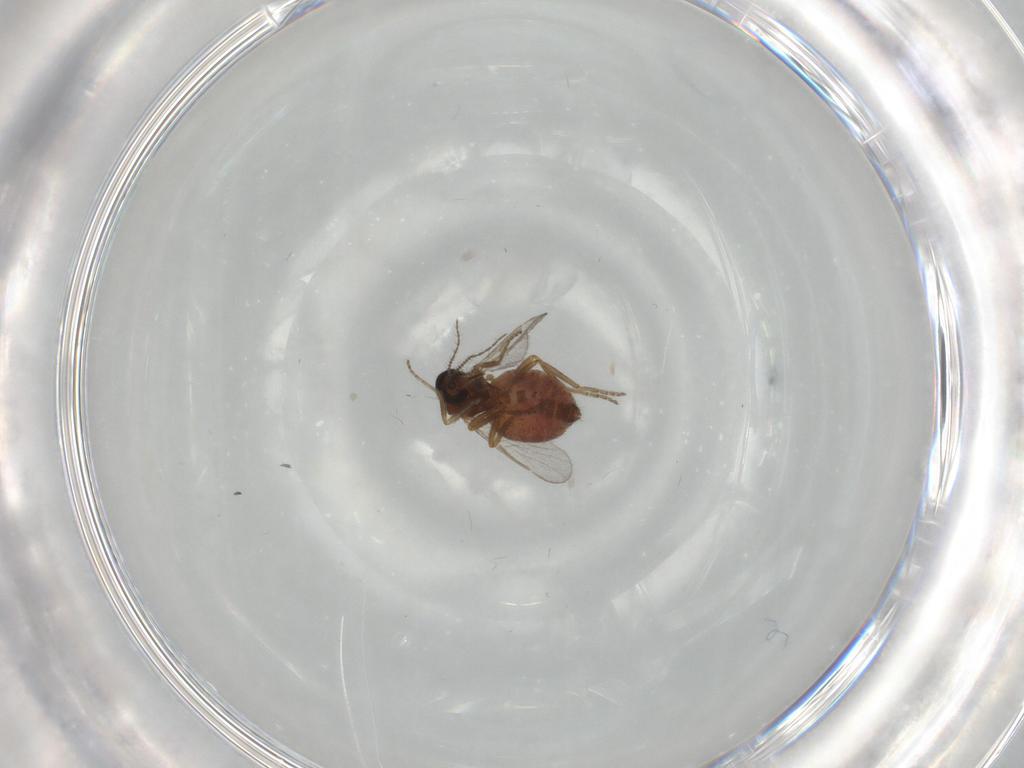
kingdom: Animalia
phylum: Arthropoda
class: Insecta
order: Diptera
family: Ceratopogonidae
